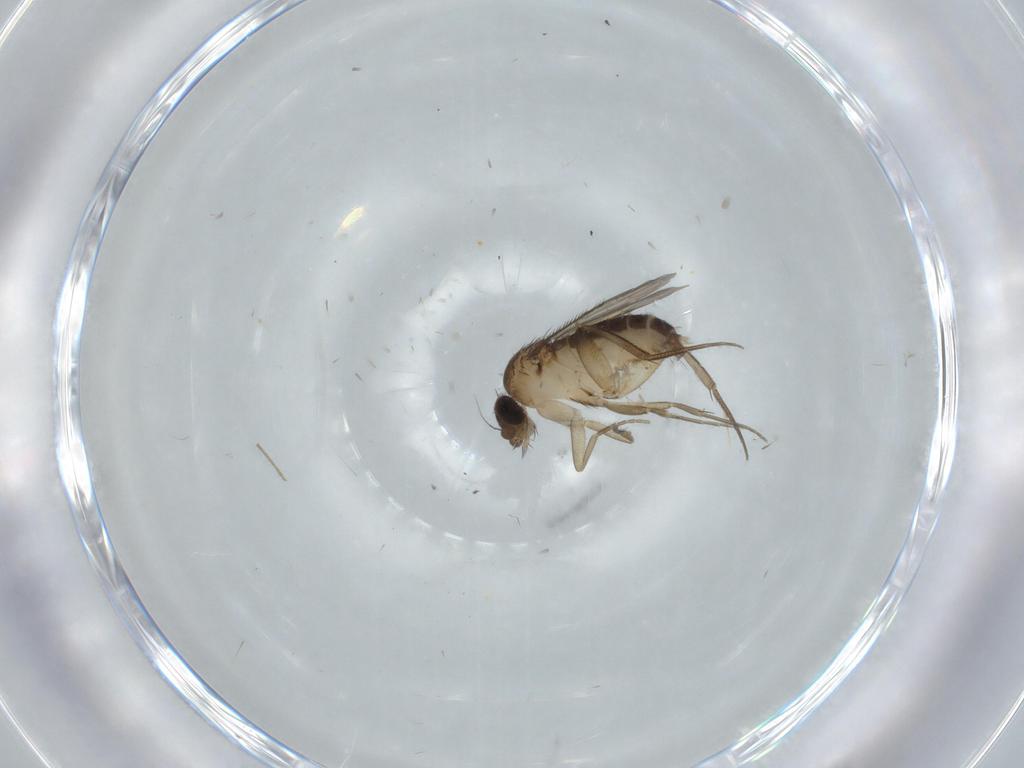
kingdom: Animalia
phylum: Arthropoda
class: Insecta
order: Diptera
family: Phoridae
